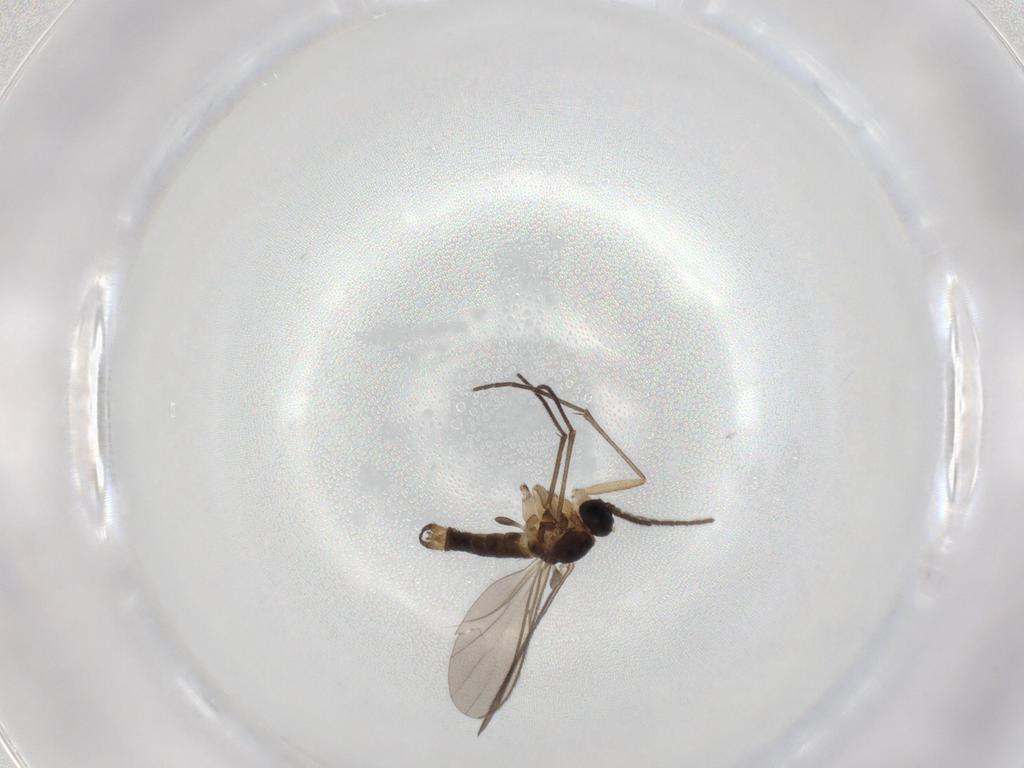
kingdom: Animalia
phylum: Arthropoda
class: Insecta
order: Diptera
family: Sciaridae
